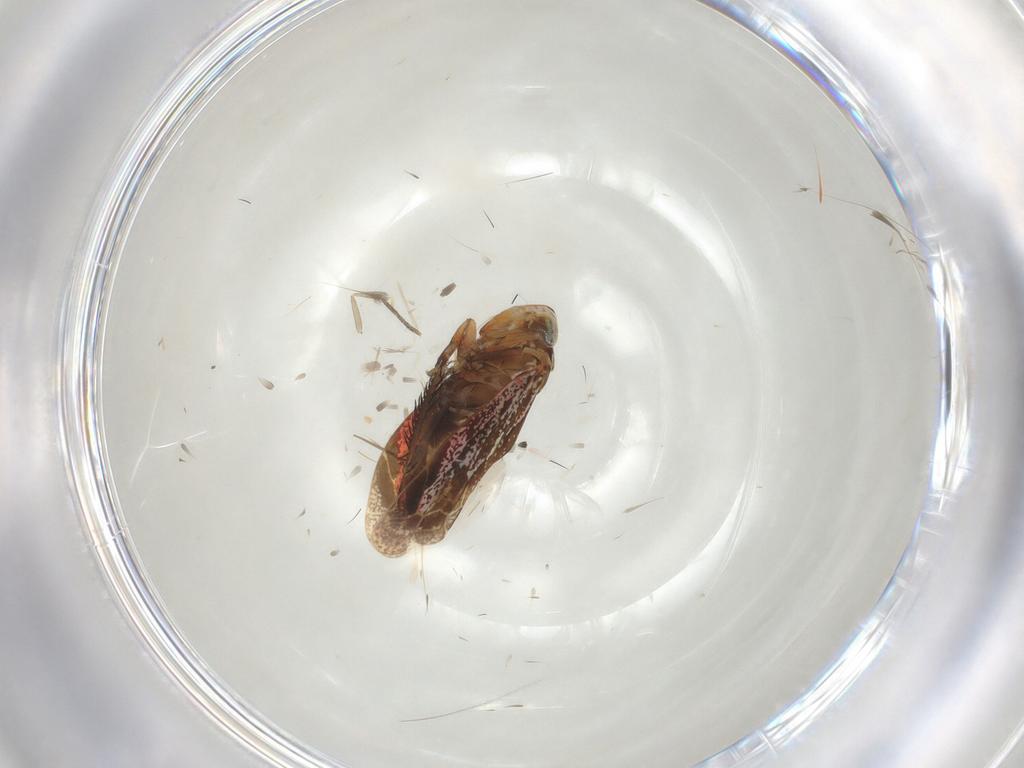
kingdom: Animalia
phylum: Arthropoda
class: Insecta
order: Hemiptera
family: Cicadellidae
